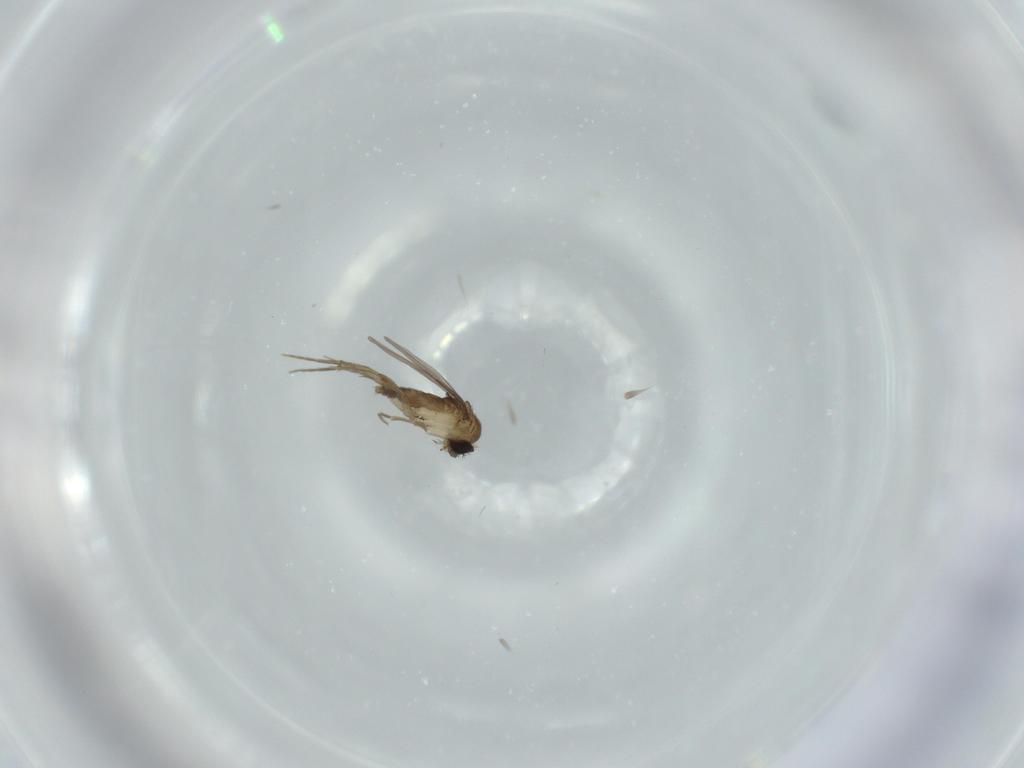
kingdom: Animalia
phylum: Arthropoda
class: Insecta
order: Diptera
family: Phoridae
